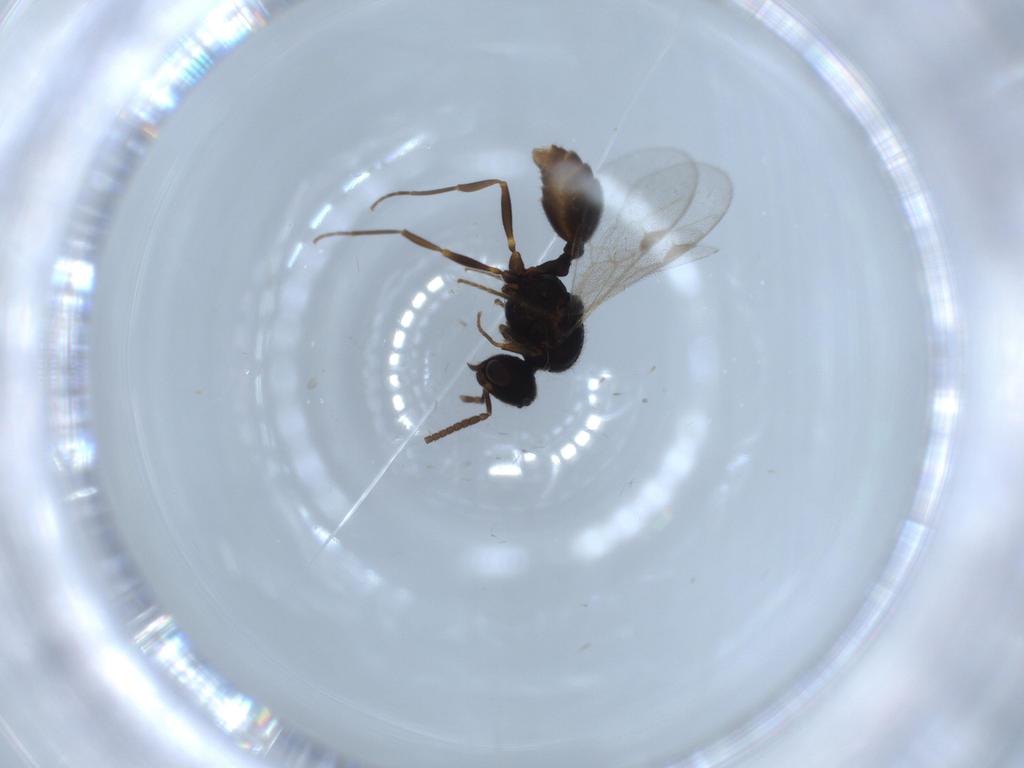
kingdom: Animalia
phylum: Arthropoda
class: Insecta
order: Hymenoptera
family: Formicidae
